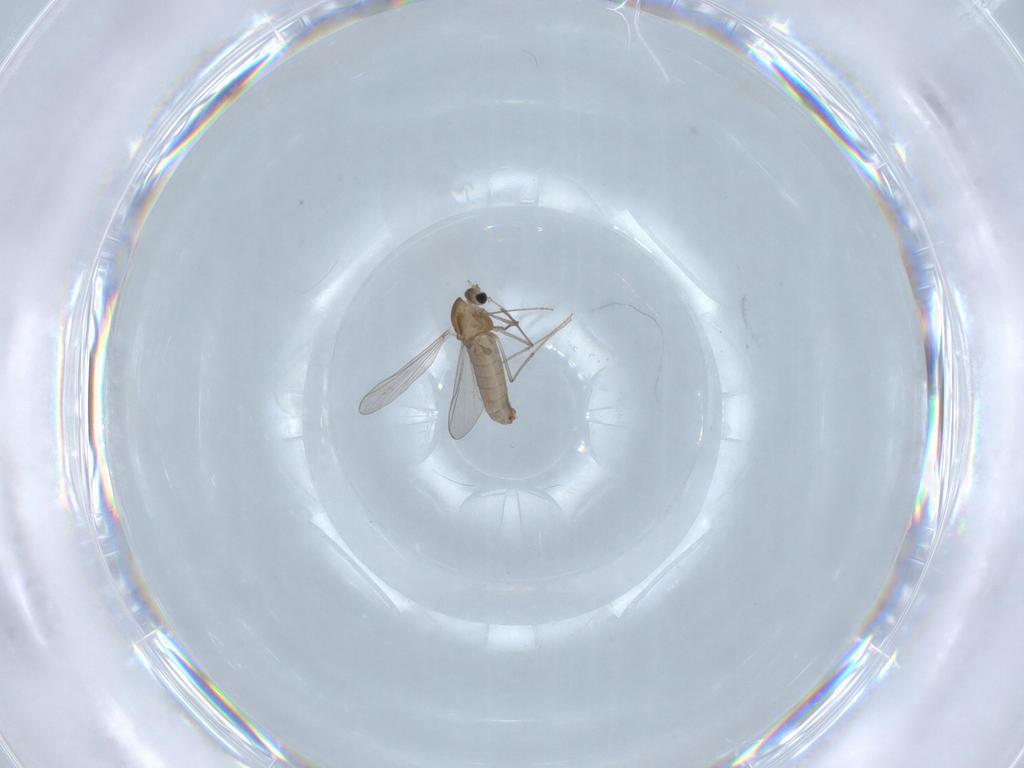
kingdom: Animalia
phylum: Arthropoda
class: Insecta
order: Diptera
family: Chironomidae
